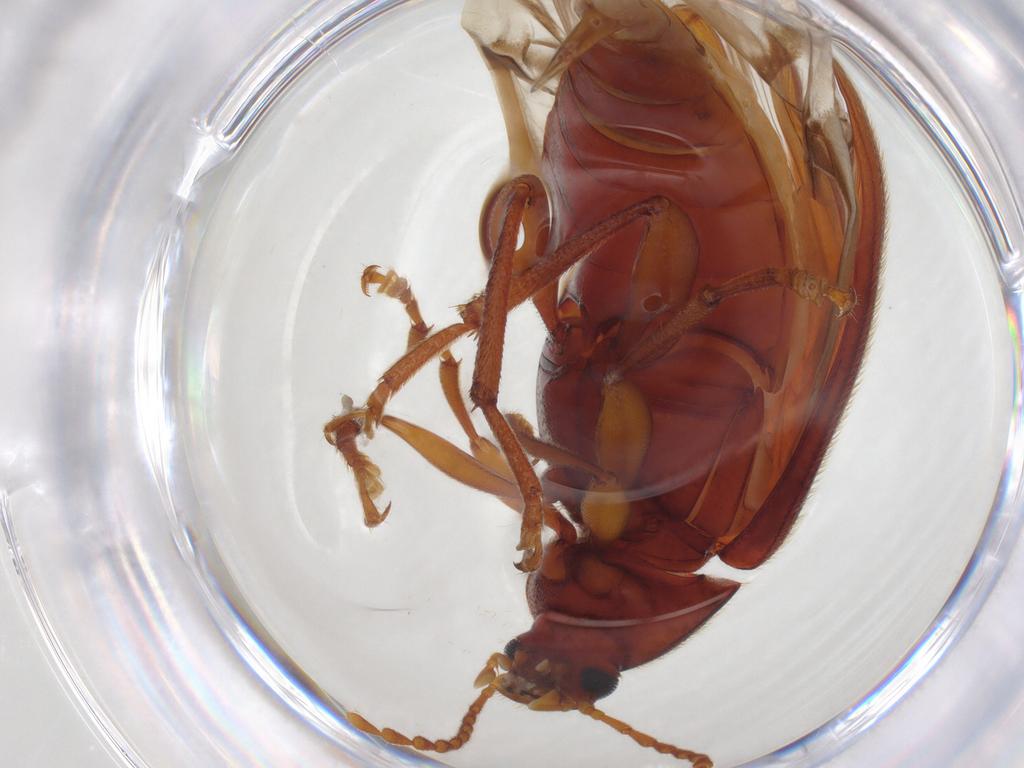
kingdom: Animalia
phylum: Arthropoda
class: Insecta
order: Coleoptera
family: Tenebrionidae
